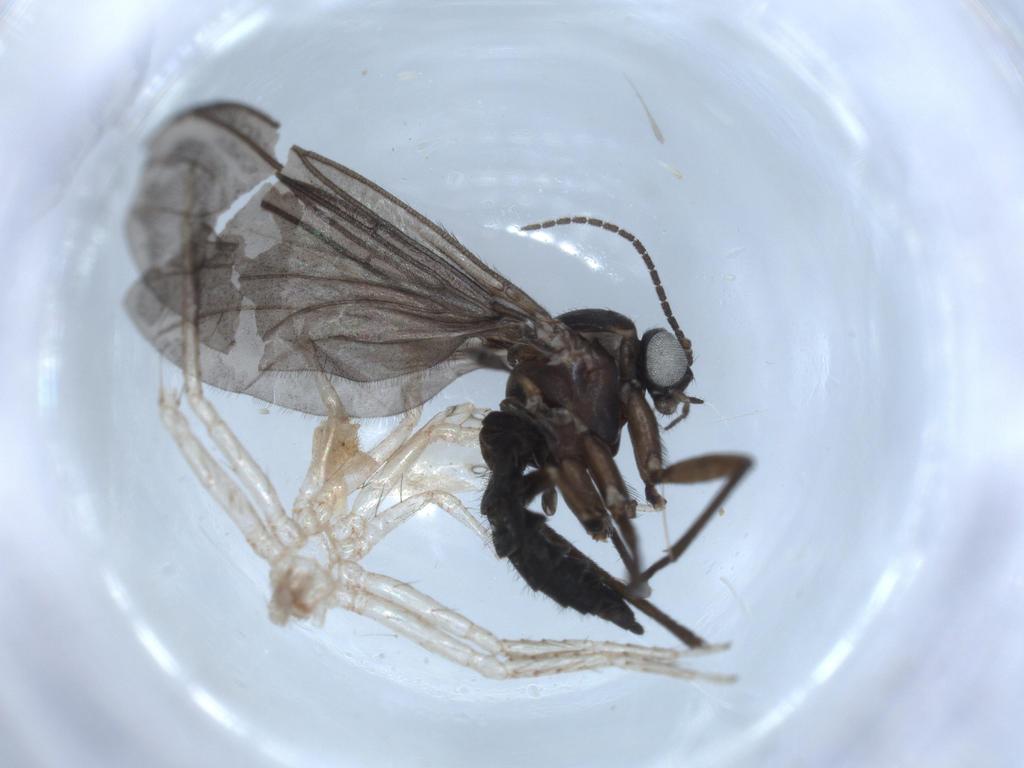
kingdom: Animalia
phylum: Arthropoda
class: Insecta
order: Diptera
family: Sciaridae
